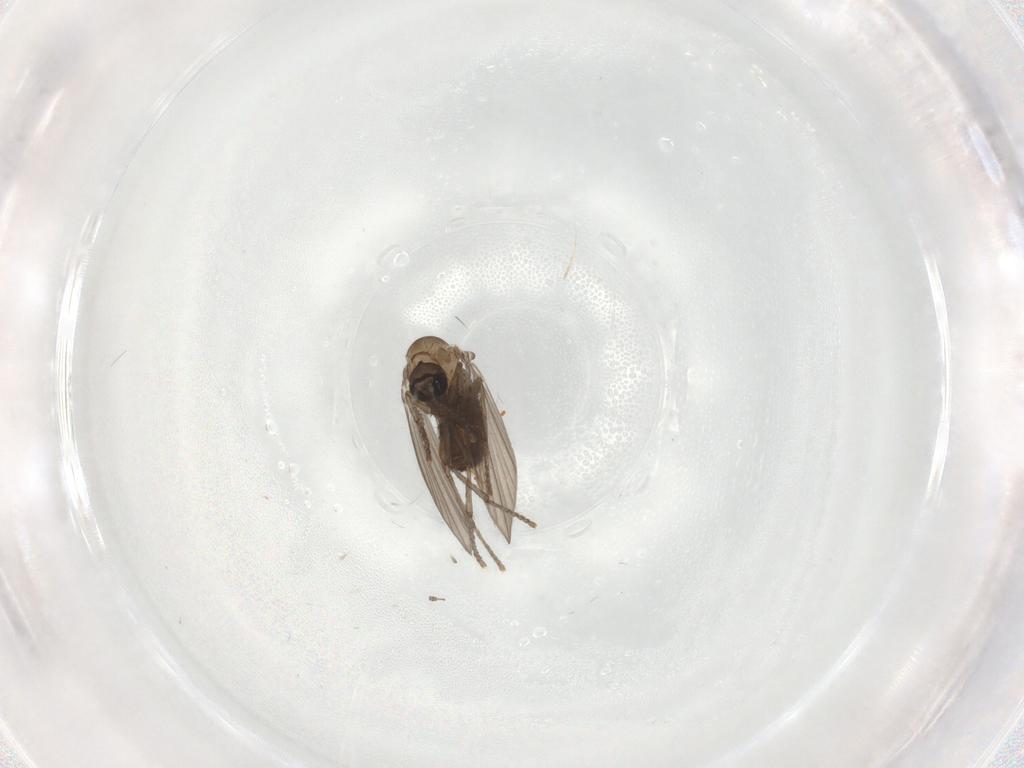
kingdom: Animalia
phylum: Arthropoda
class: Insecta
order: Diptera
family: Psychodidae
